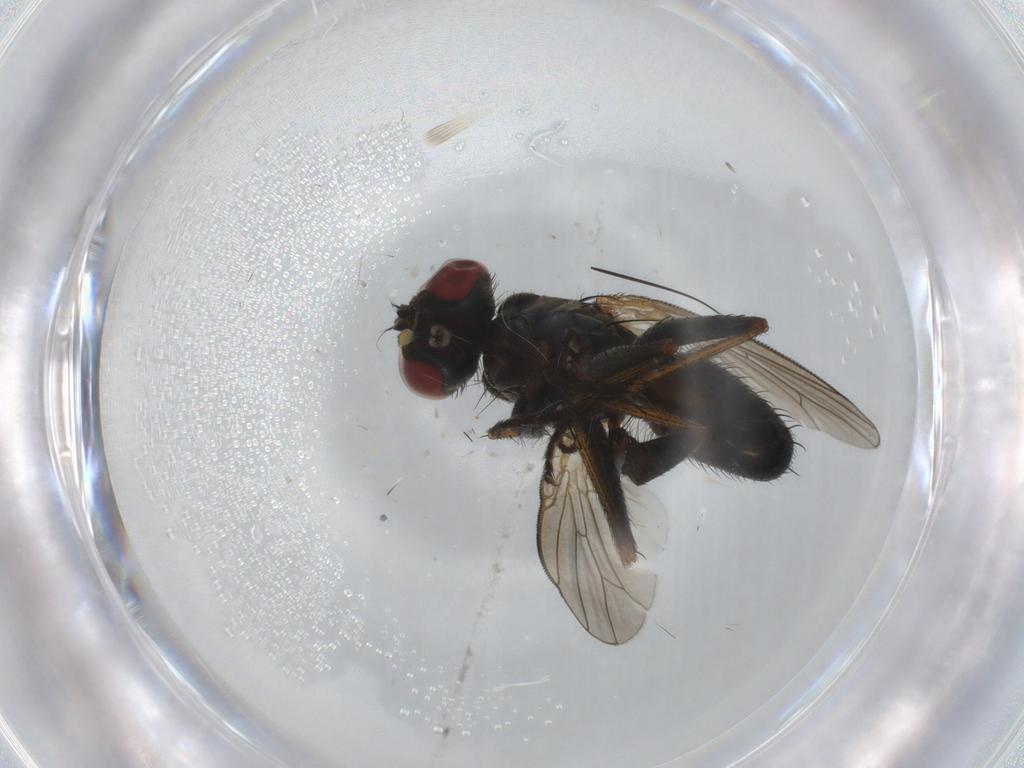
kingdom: Animalia
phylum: Arthropoda
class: Insecta
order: Diptera
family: Muscidae
